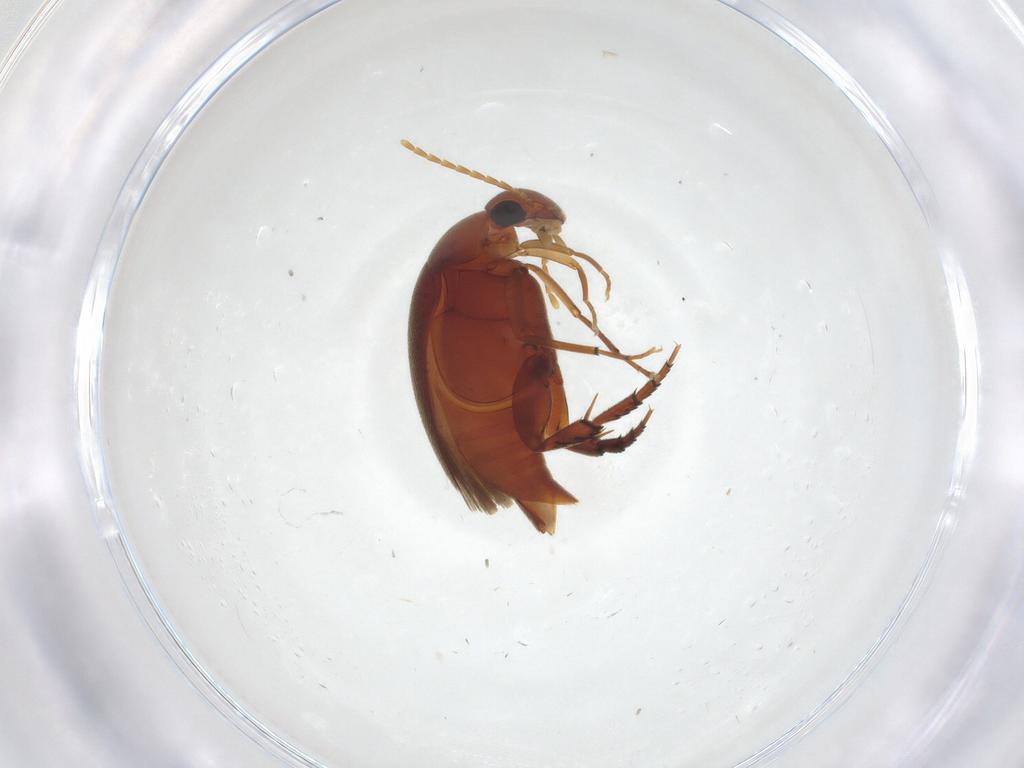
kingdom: Animalia
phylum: Arthropoda
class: Insecta
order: Coleoptera
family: Mordellidae
